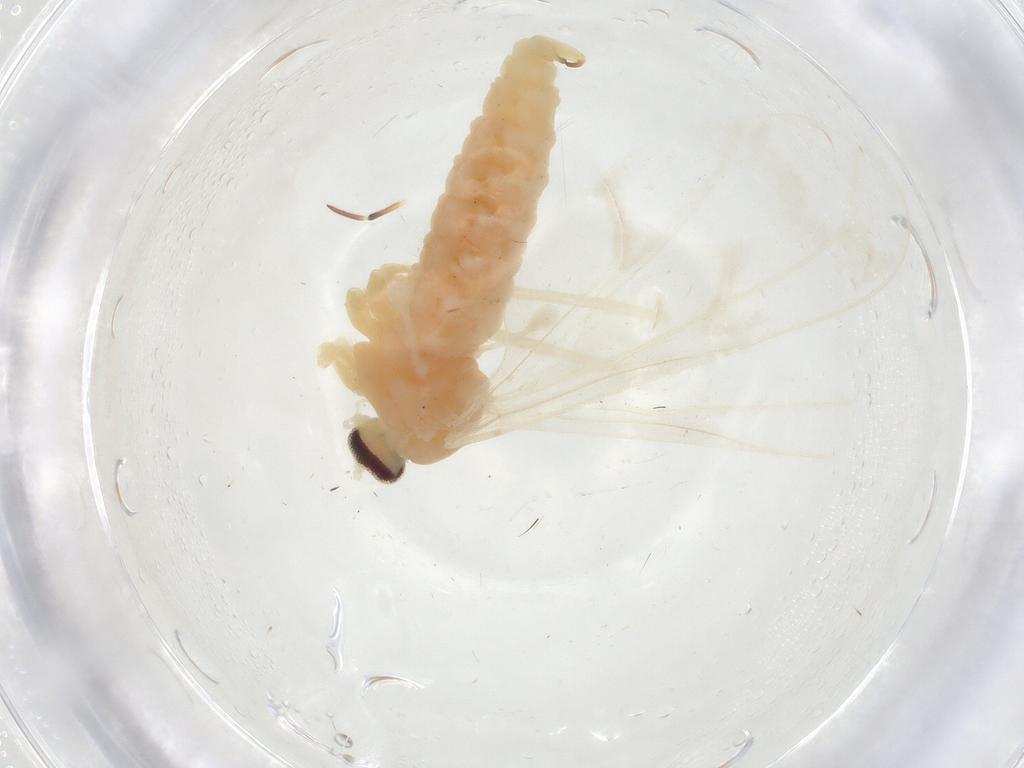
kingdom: Animalia
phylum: Arthropoda
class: Insecta
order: Diptera
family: Muscidae
